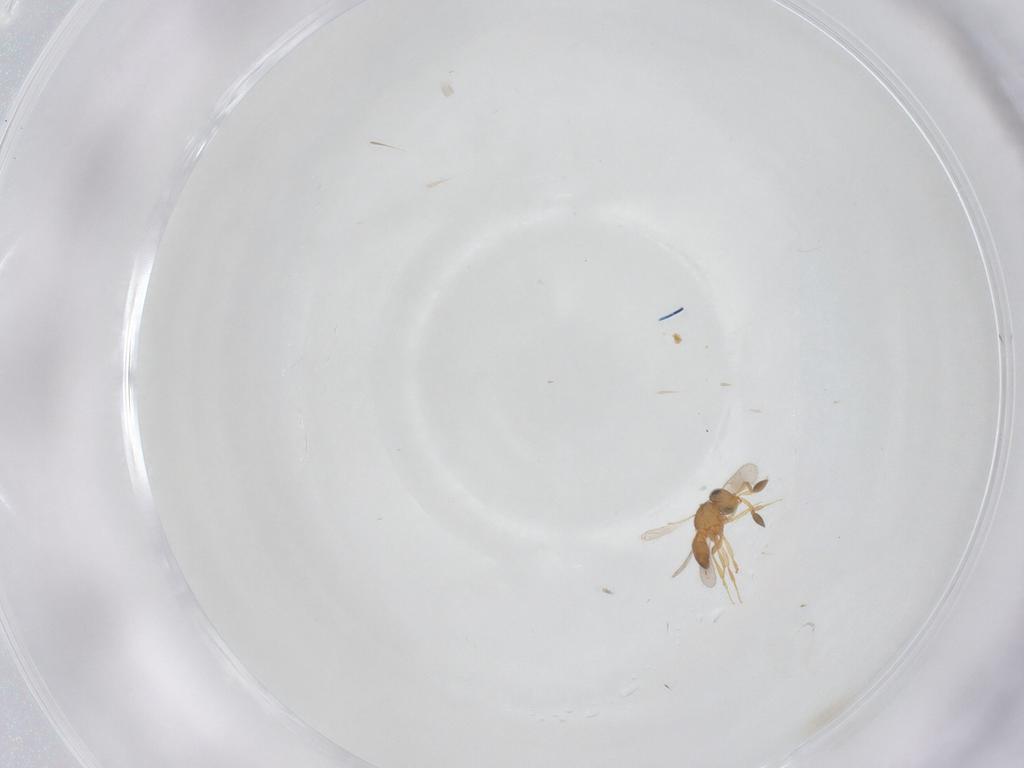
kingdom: Animalia
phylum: Arthropoda
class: Insecta
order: Hymenoptera
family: Scelionidae
